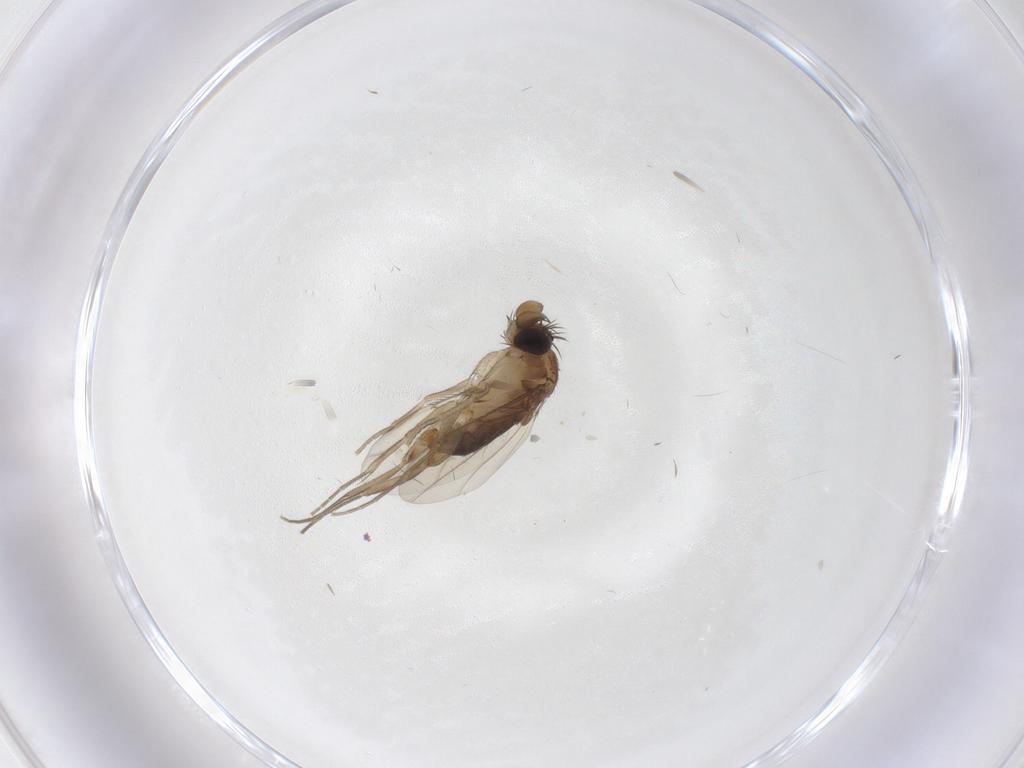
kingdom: Animalia
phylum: Arthropoda
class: Insecta
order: Diptera
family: Phoridae
